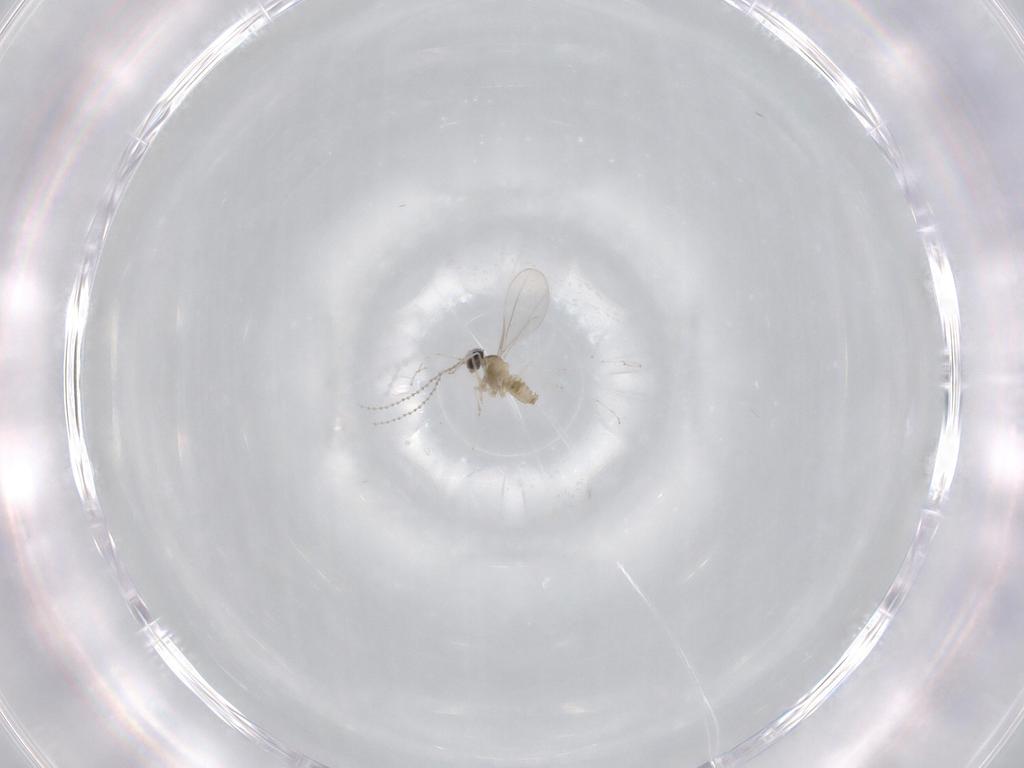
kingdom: Animalia
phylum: Arthropoda
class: Insecta
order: Diptera
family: Cecidomyiidae
